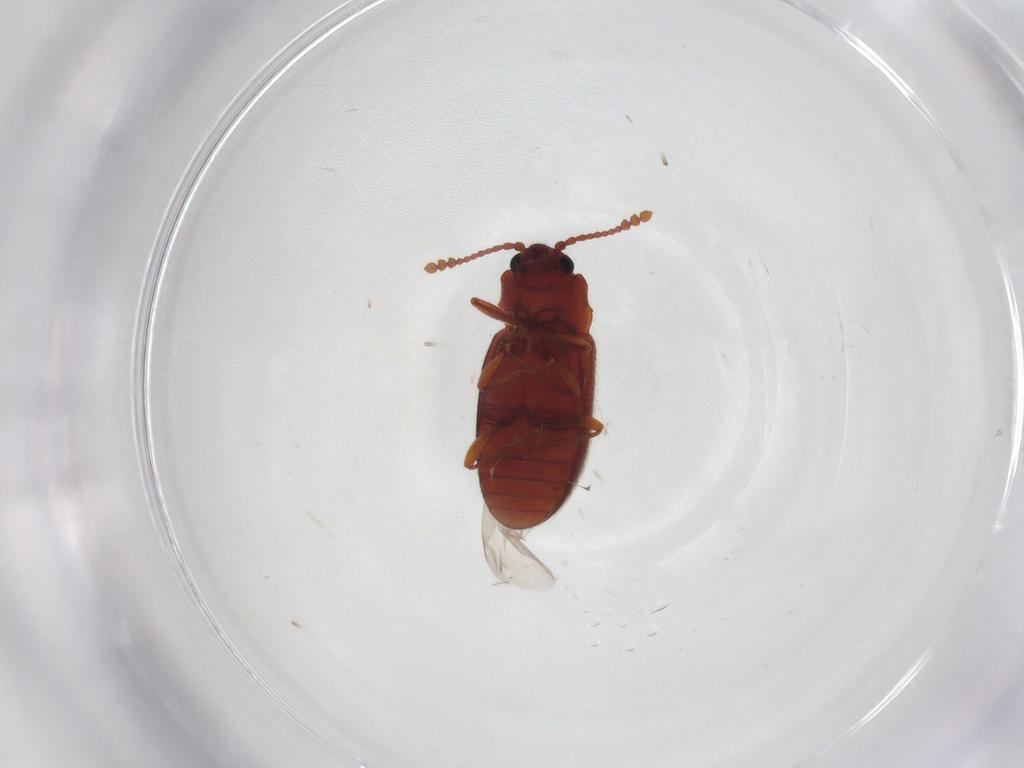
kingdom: Animalia
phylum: Arthropoda
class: Insecta
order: Coleoptera
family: Cryptophagidae
